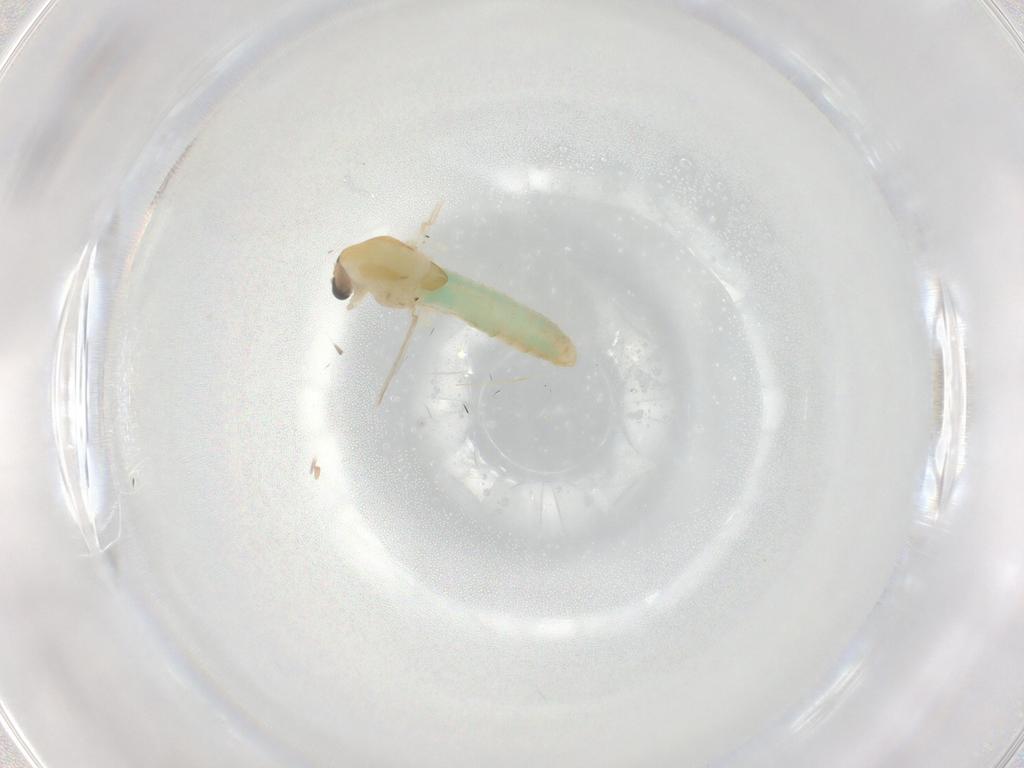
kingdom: Animalia
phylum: Arthropoda
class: Insecta
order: Diptera
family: Chironomidae
